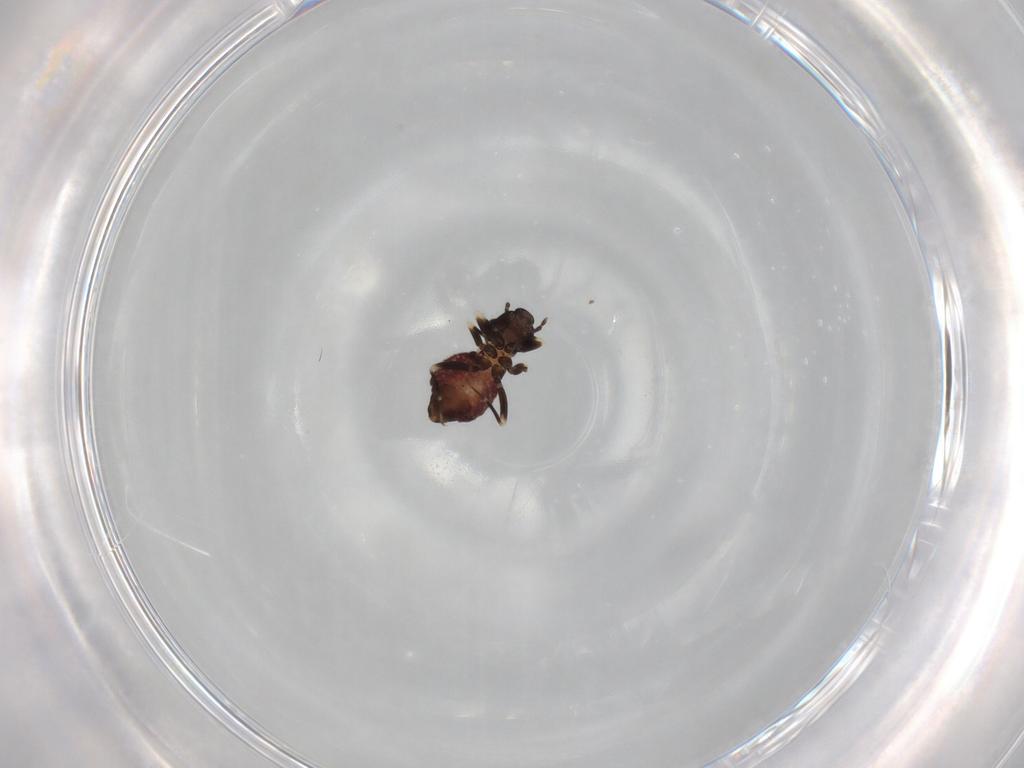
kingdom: Animalia
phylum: Arthropoda
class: Insecta
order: Psocodea
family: Lepidopsocidae
